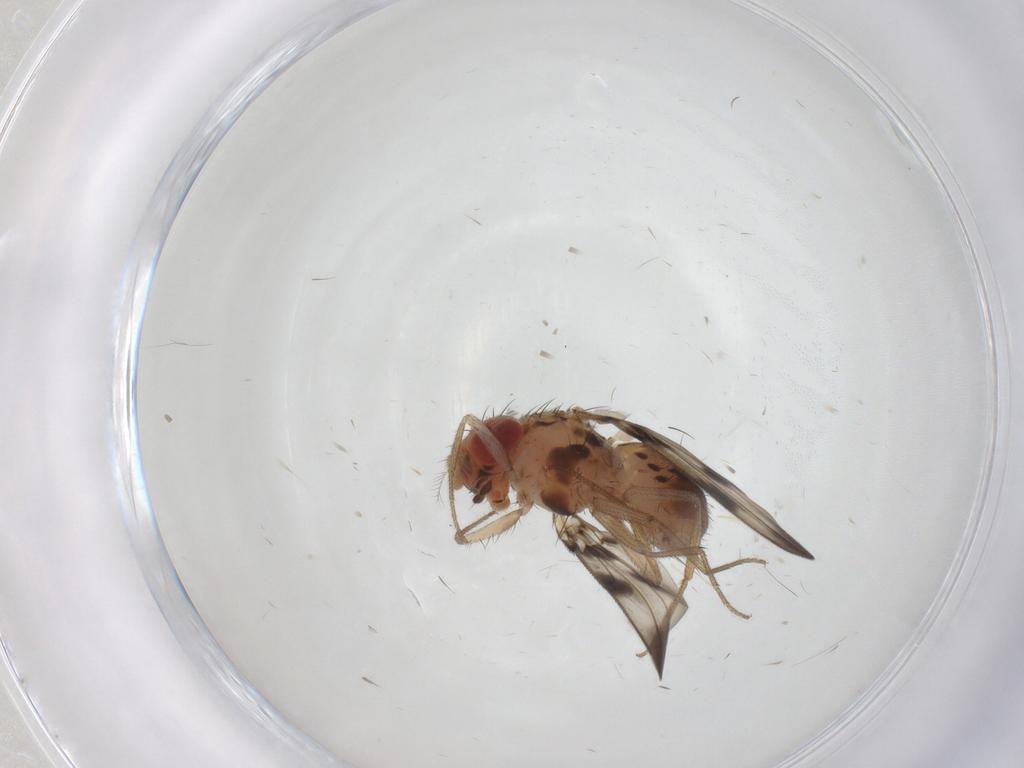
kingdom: Animalia
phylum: Arthropoda
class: Insecta
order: Diptera
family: Drosophilidae
